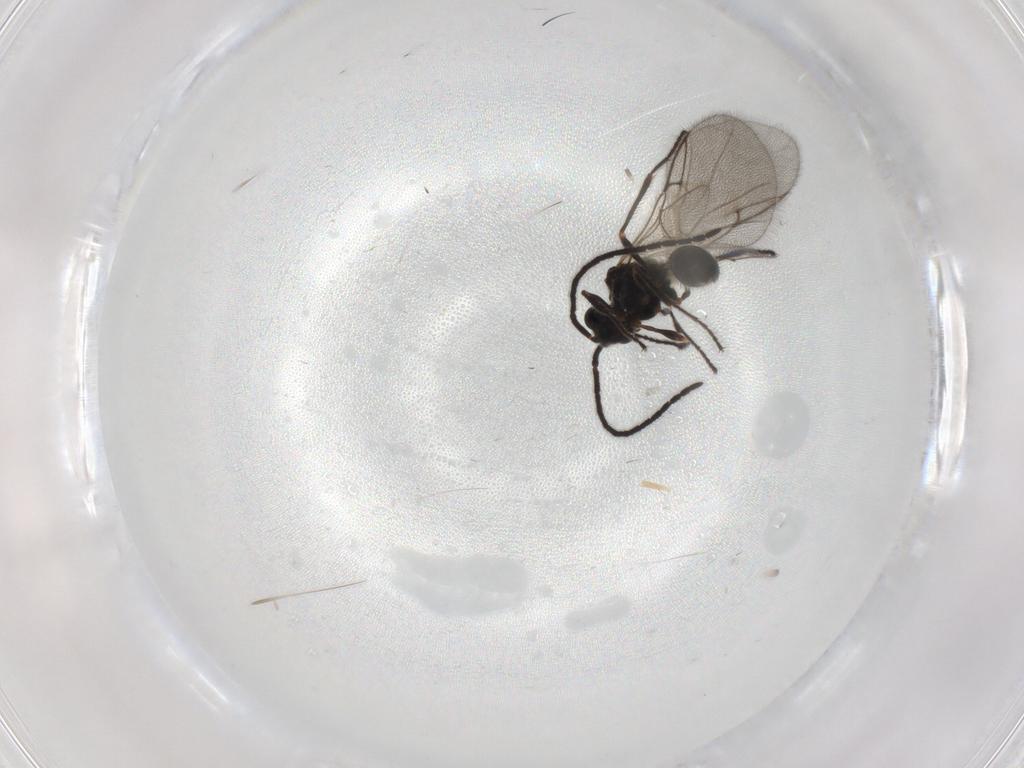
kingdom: Animalia
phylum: Arthropoda
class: Insecta
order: Hymenoptera
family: Diapriidae
